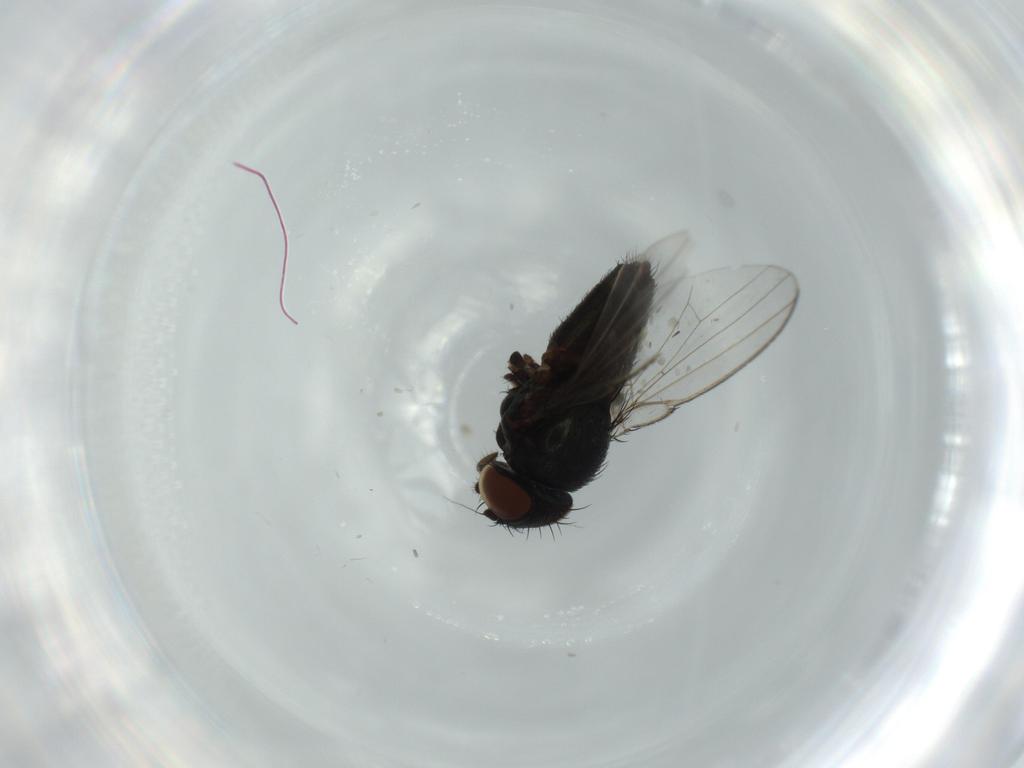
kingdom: Animalia
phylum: Arthropoda
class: Insecta
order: Diptera
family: Milichiidae
